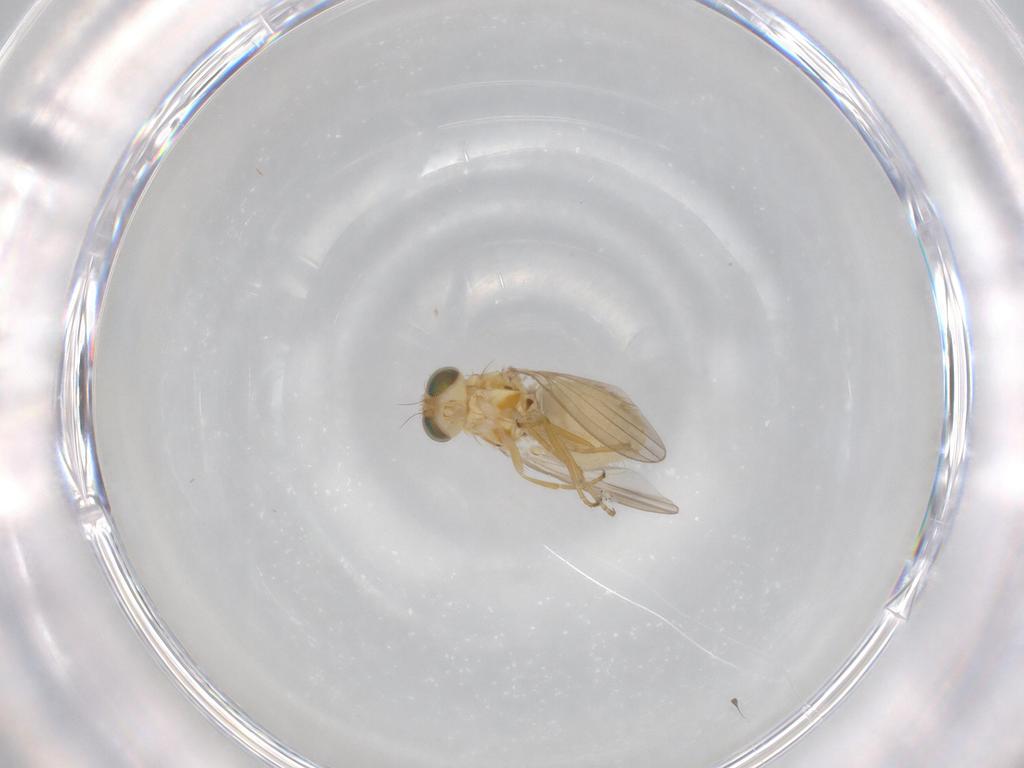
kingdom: Animalia
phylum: Arthropoda
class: Insecta
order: Diptera
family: Chyromyidae
